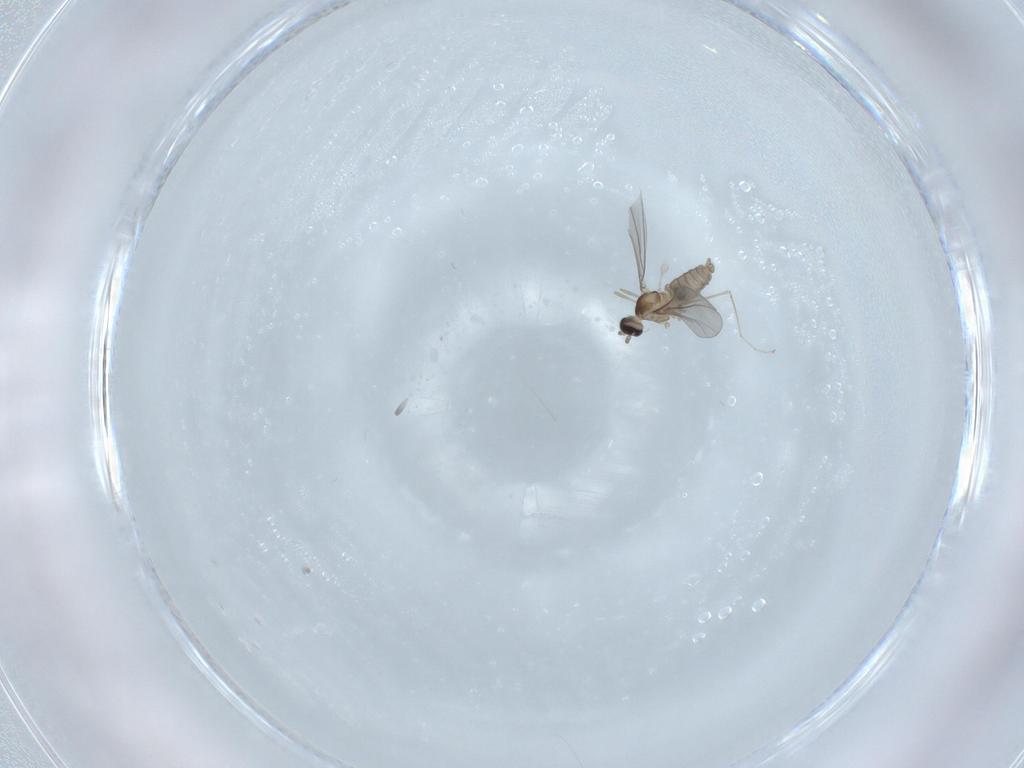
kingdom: Animalia
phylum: Arthropoda
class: Insecta
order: Diptera
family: Cecidomyiidae
